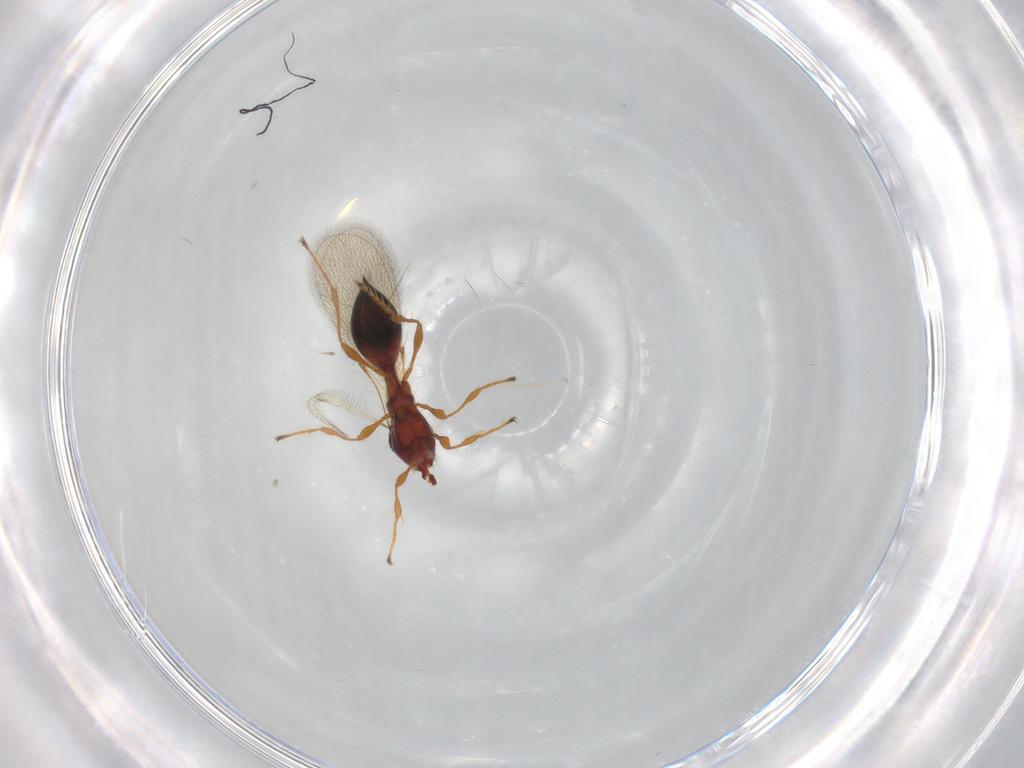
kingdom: Animalia
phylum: Arthropoda
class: Insecta
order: Hymenoptera
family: Diapriidae
